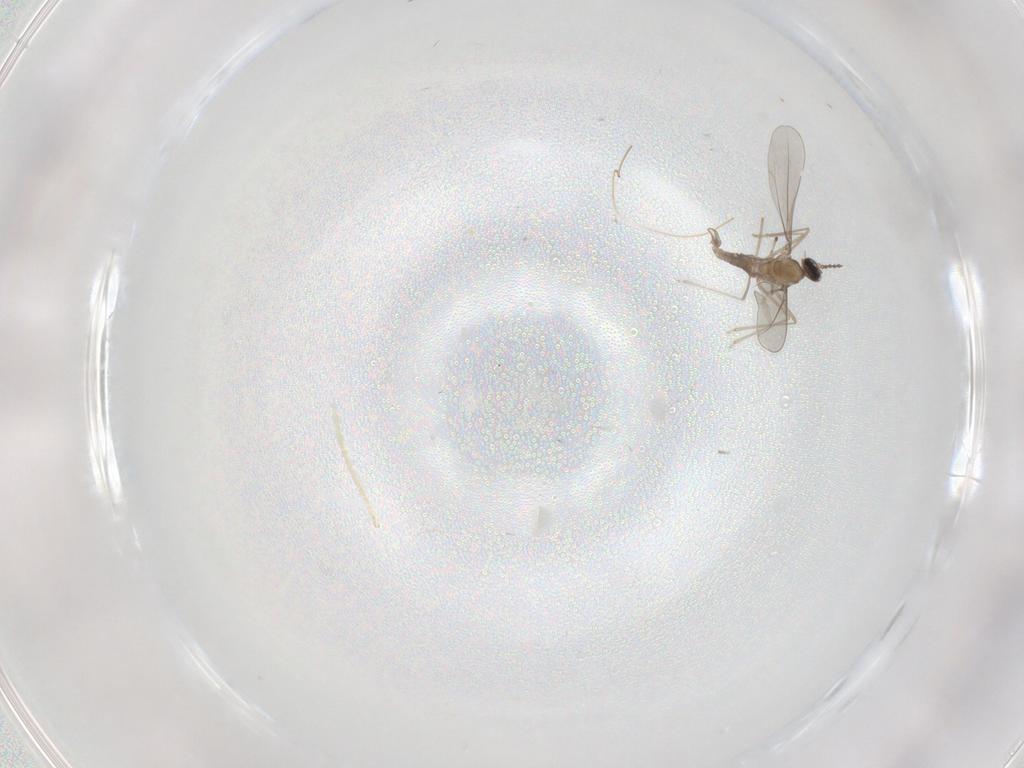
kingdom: Animalia
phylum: Arthropoda
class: Insecta
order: Diptera
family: Cecidomyiidae
